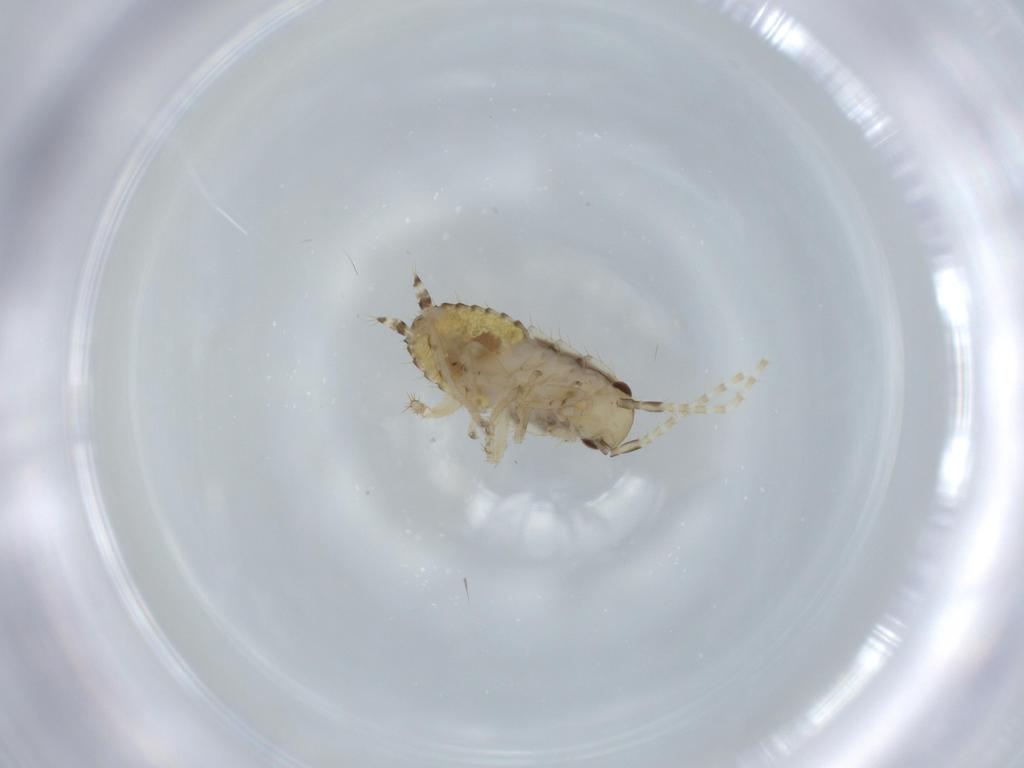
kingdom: Animalia
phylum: Arthropoda
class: Insecta
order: Blattodea
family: Ectobiidae
